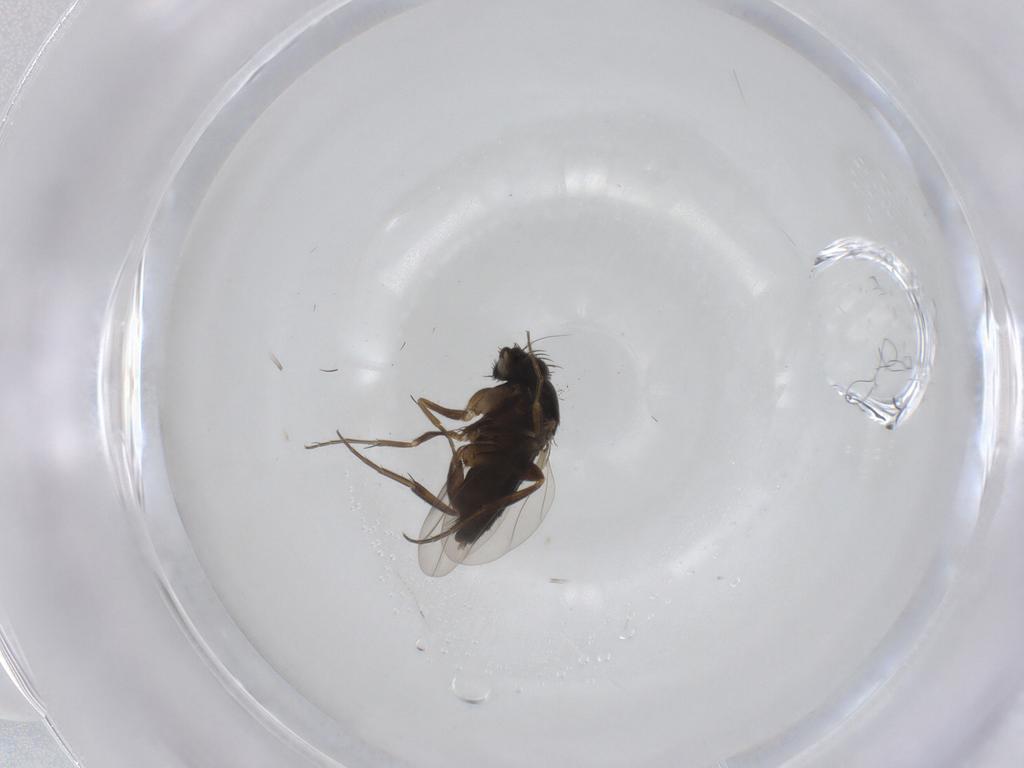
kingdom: Animalia
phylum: Arthropoda
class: Insecta
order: Diptera
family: Phoridae
